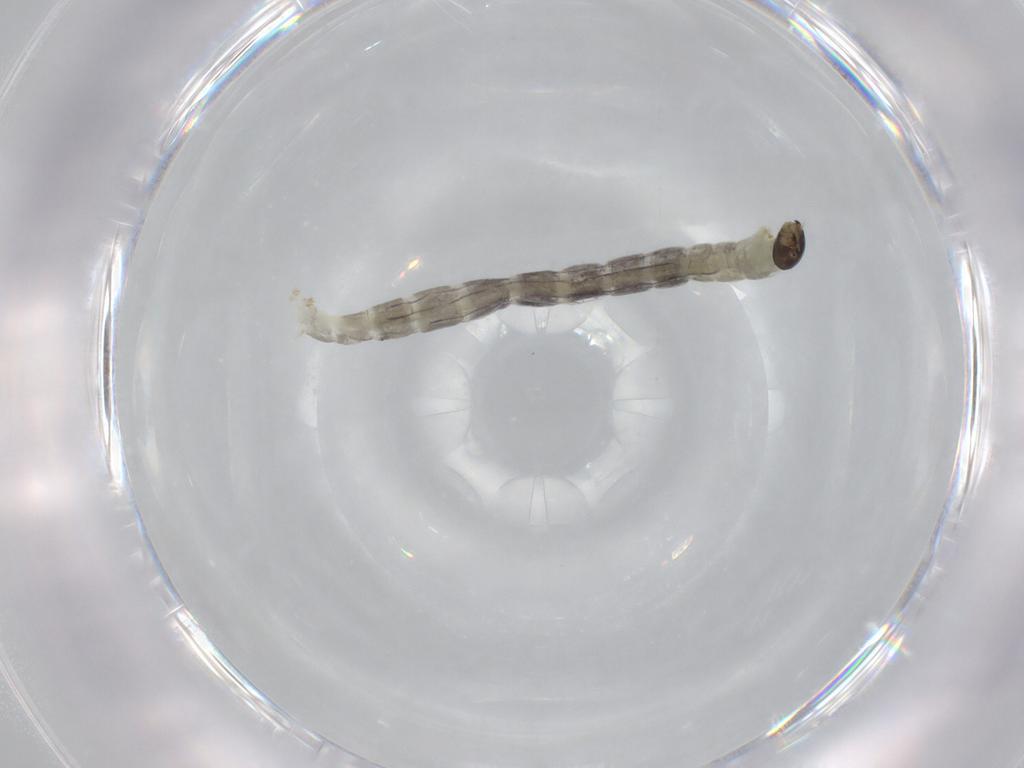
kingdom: Animalia
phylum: Arthropoda
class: Insecta
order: Diptera
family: Chironomidae
